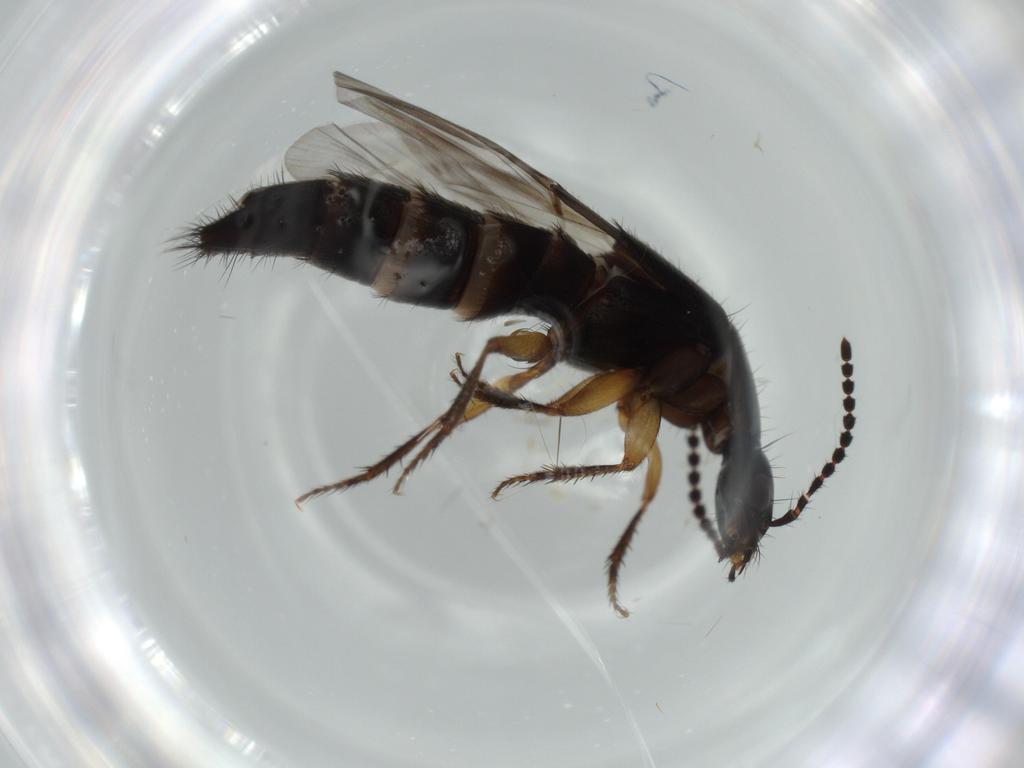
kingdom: Animalia
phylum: Arthropoda
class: Insecta
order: Coleoptera
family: Staphylinidae
